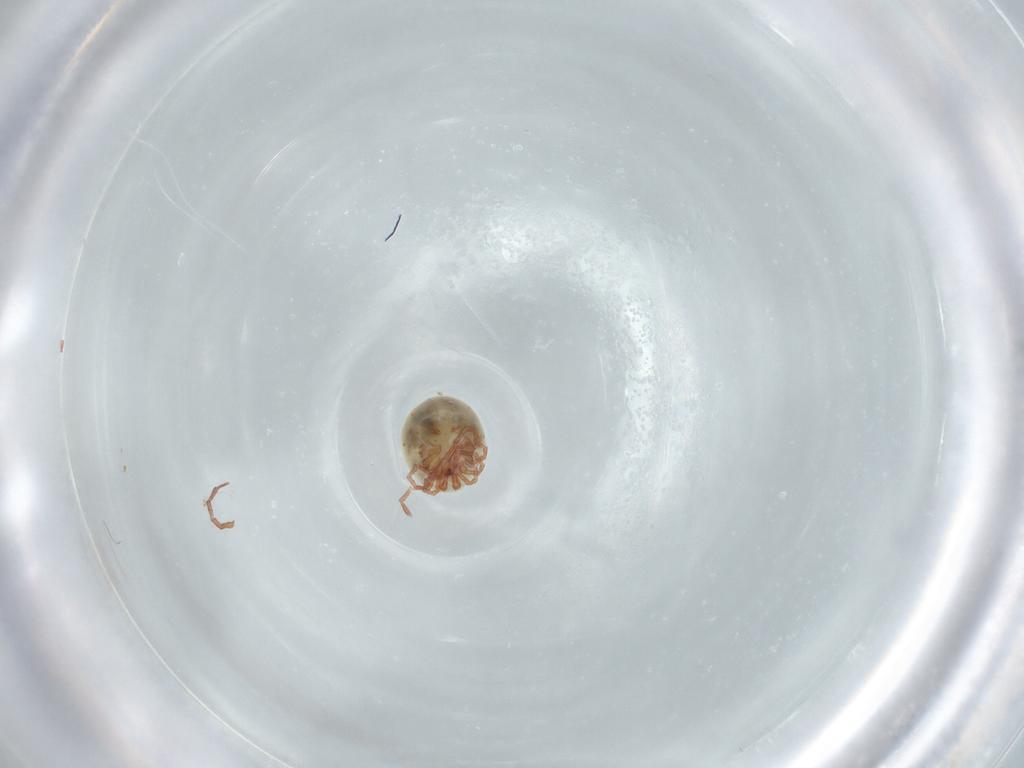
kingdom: Animalia
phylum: Arthropoda
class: Arachnida
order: Trombidiformes
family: Pionidae
